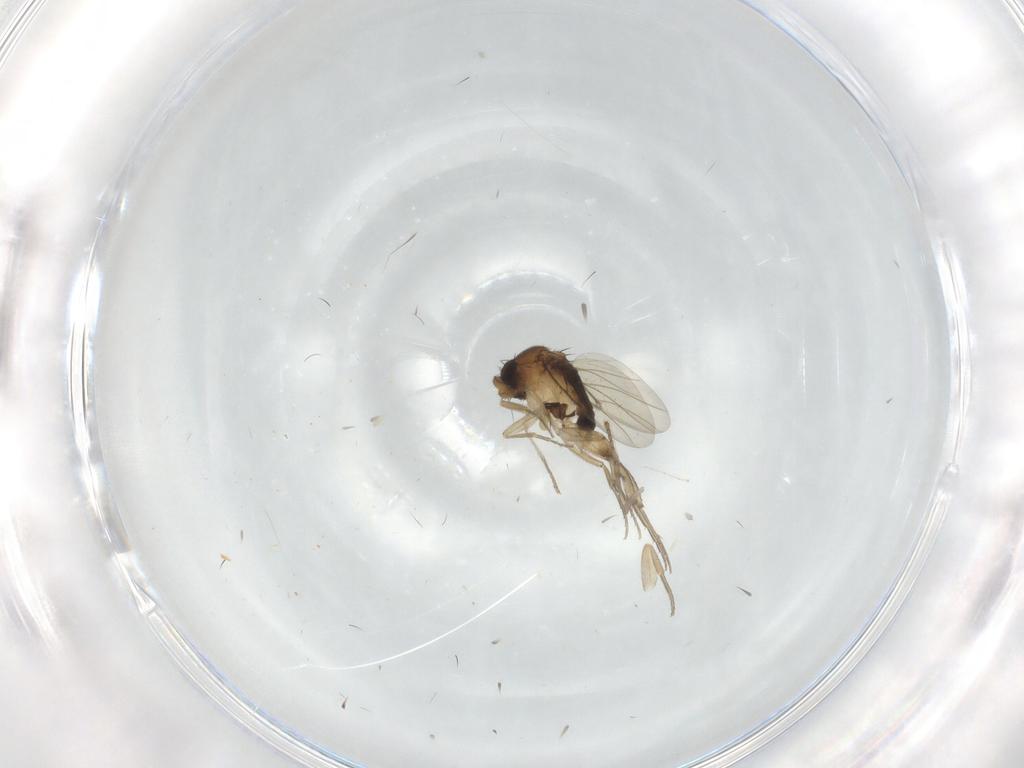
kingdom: Animalia
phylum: Arthropoda
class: Insecta
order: Diptera
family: Phoridae
